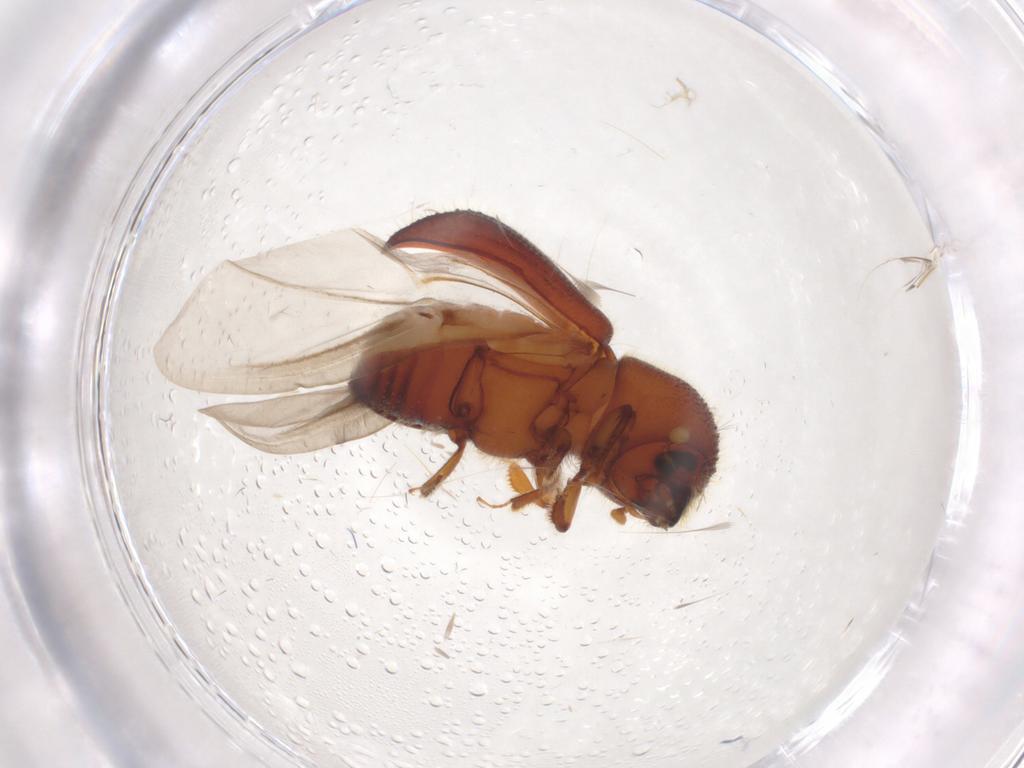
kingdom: Animalia
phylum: Arthropoda
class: Insecta
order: Coleoptera
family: Curculionidae
